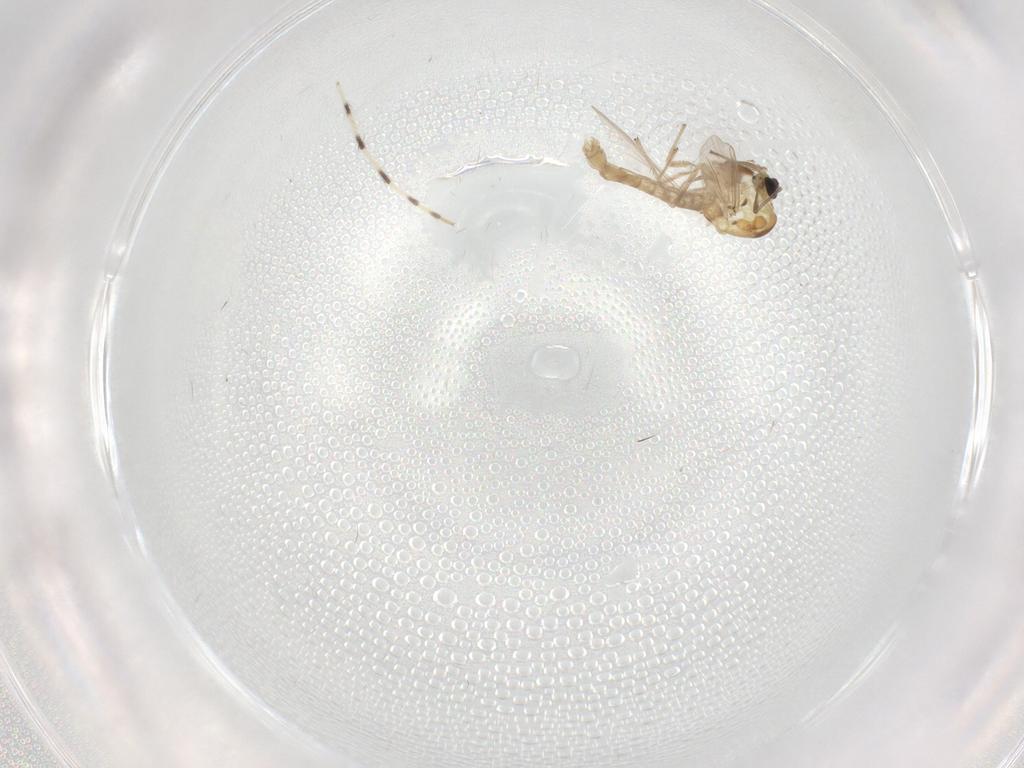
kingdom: Animalia
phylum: Arthropoda
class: Insecta
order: Diptera
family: Chironomidae
